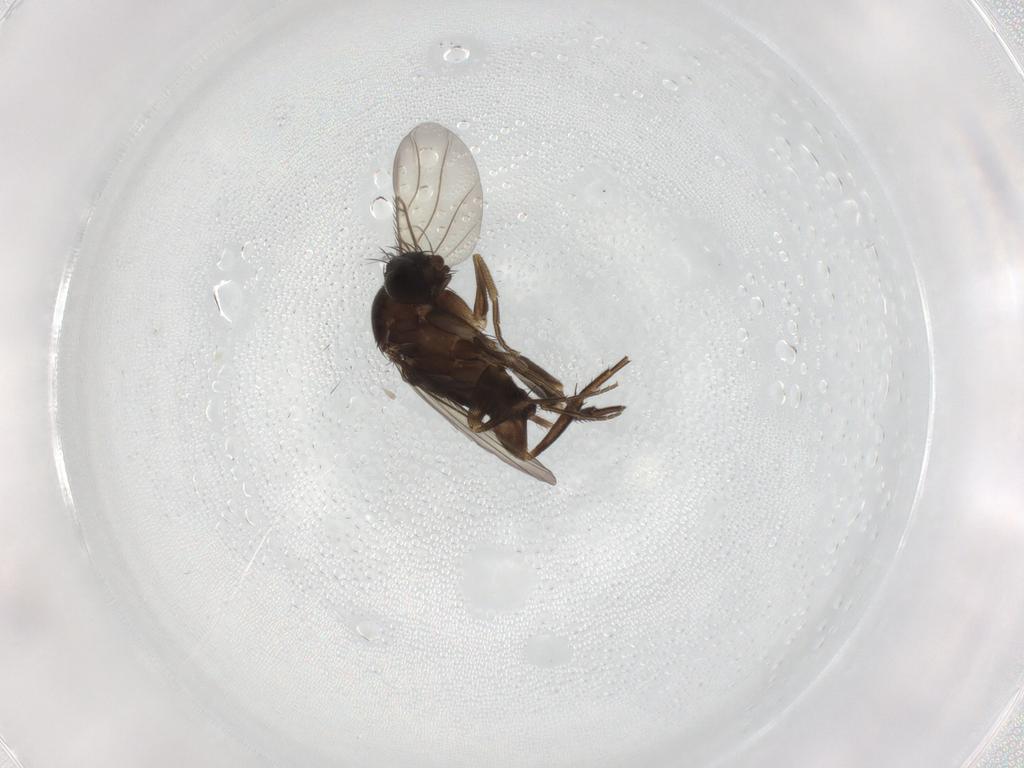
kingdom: Animalia
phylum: Arthropoda
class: Insecta
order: Diptera
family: Phoridae
